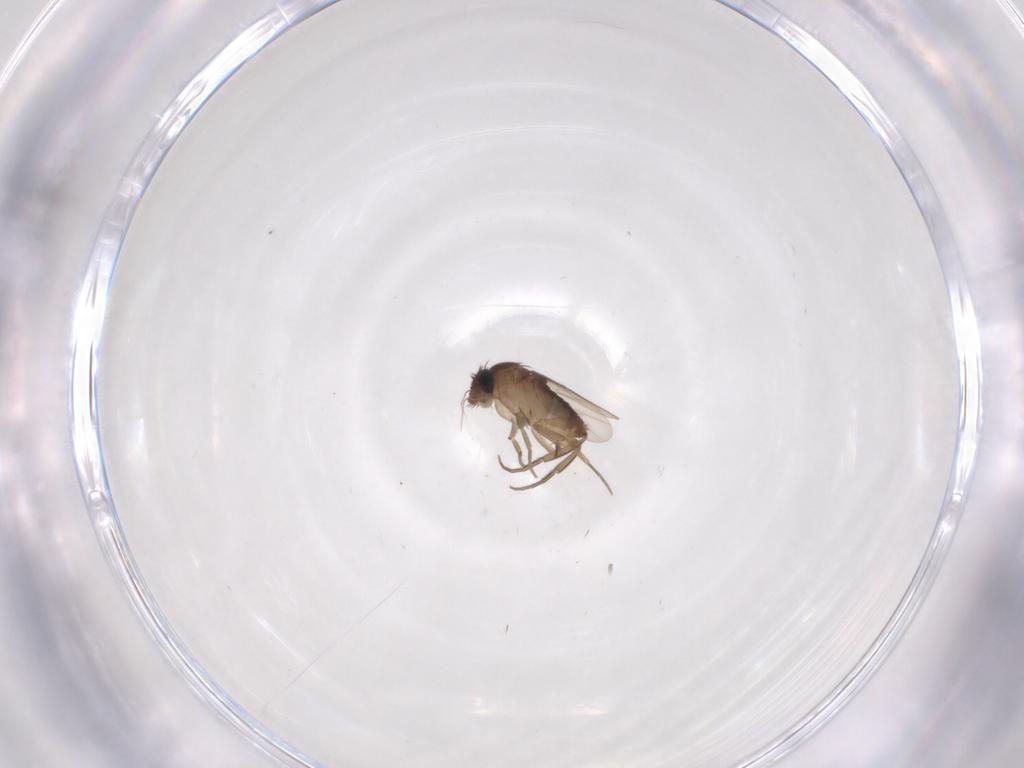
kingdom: Animalia
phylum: Arthropoda
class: Insecta
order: Diptera
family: Phoridae
